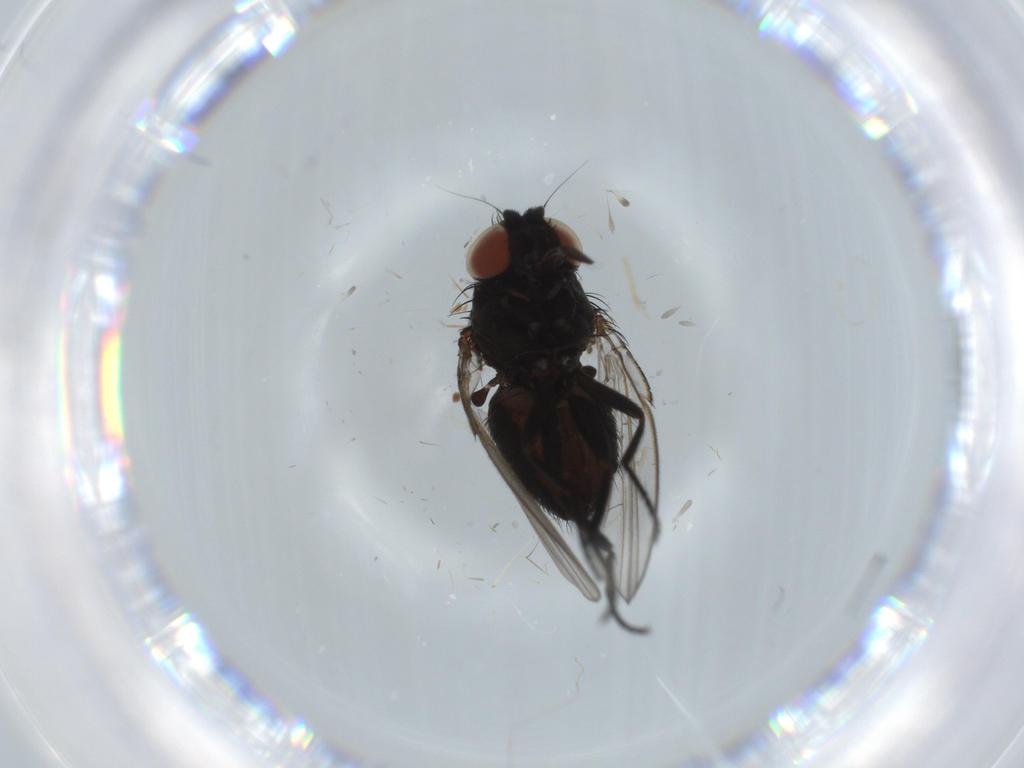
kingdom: Animalia
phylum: Arthropoda
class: Insecta
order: Diptera
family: Milichiidae
